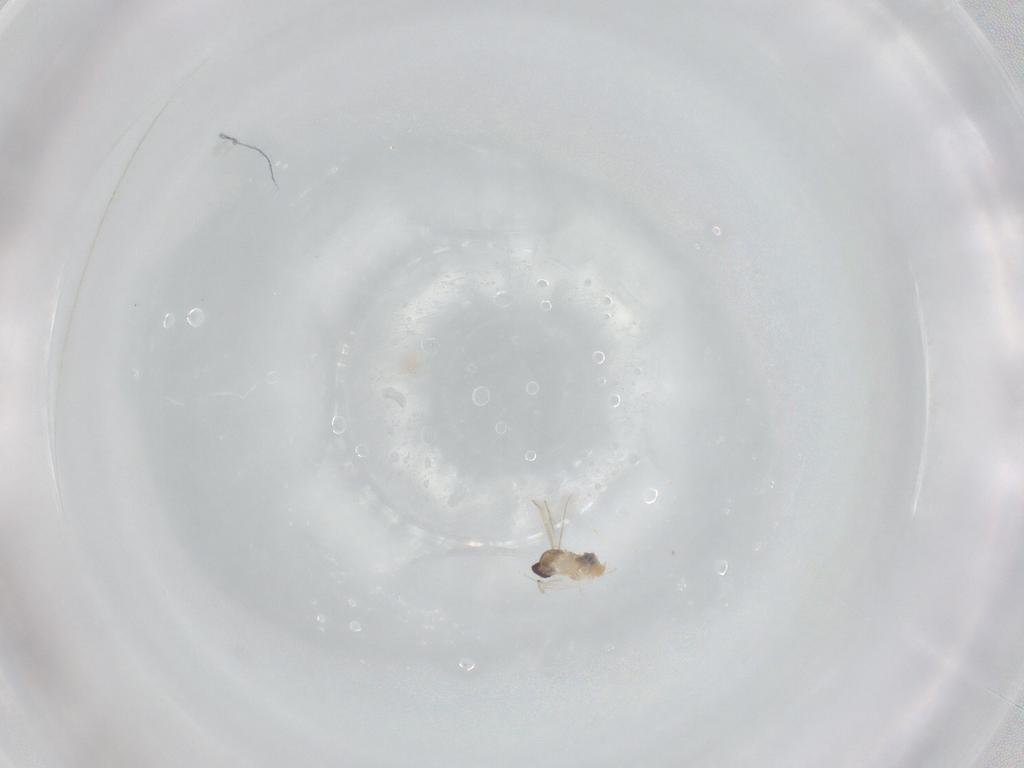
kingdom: Animalia
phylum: Arthropoda
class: Insecta
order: Diptera
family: Cecidomyiidae
